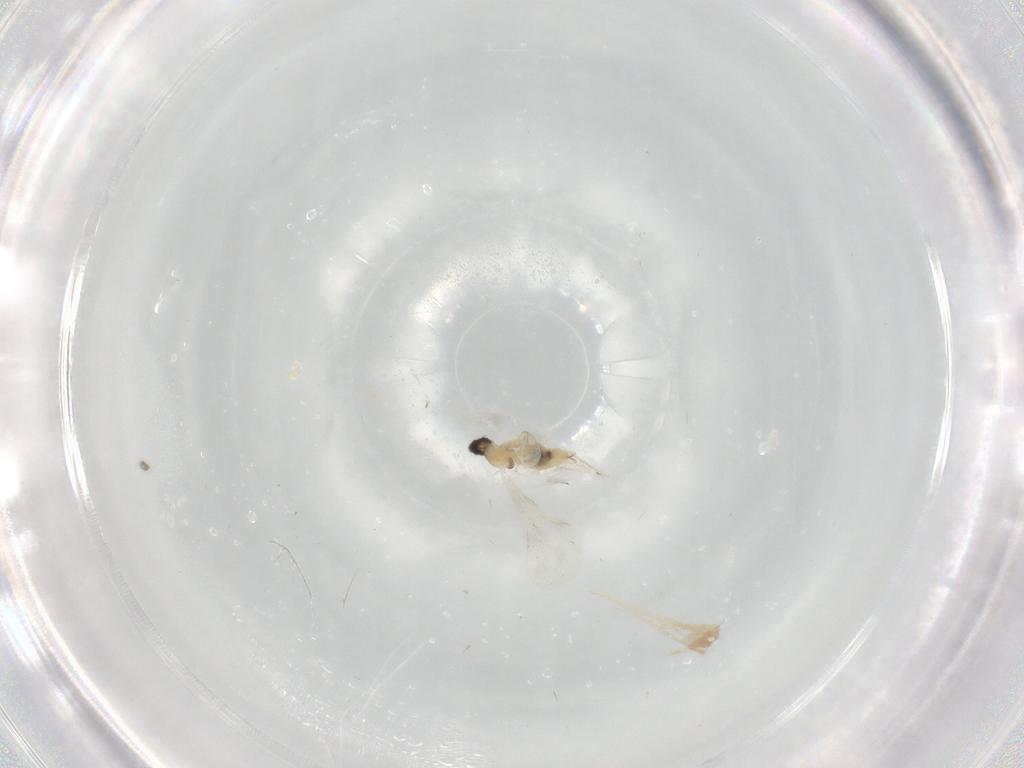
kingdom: Animalia
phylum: Arthropoda
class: Insecta
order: Diptera
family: Cecidomyiidae
